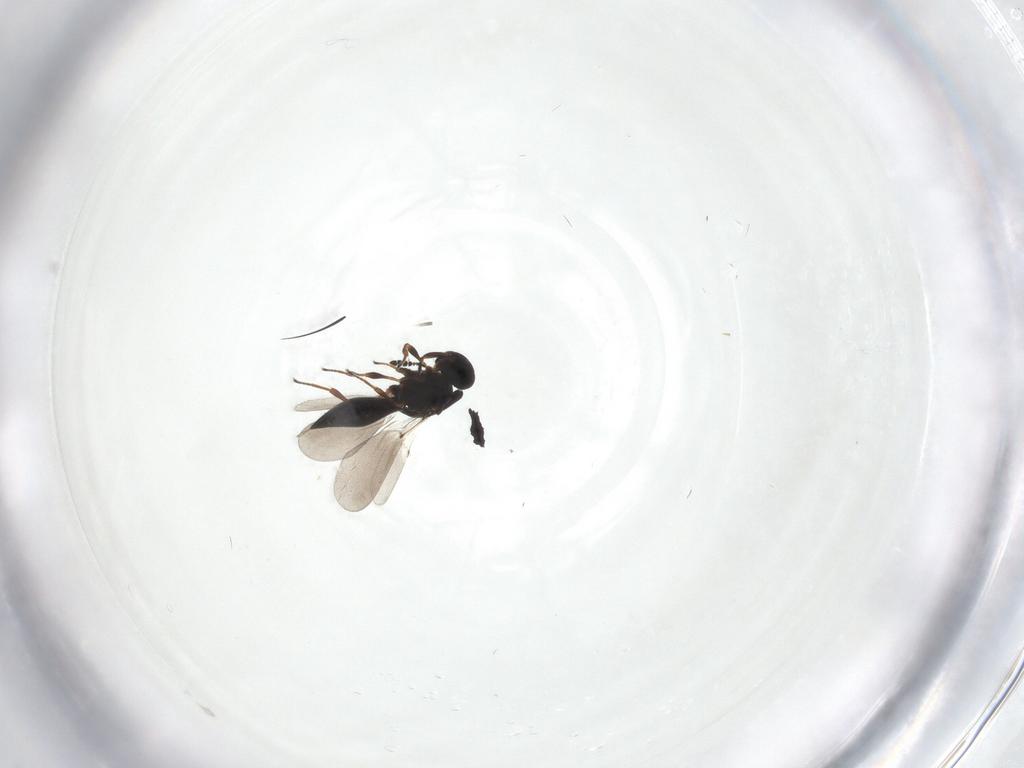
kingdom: Animalia
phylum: Arthropoda
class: Insecta
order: Hymenoptera
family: Platygastridae
